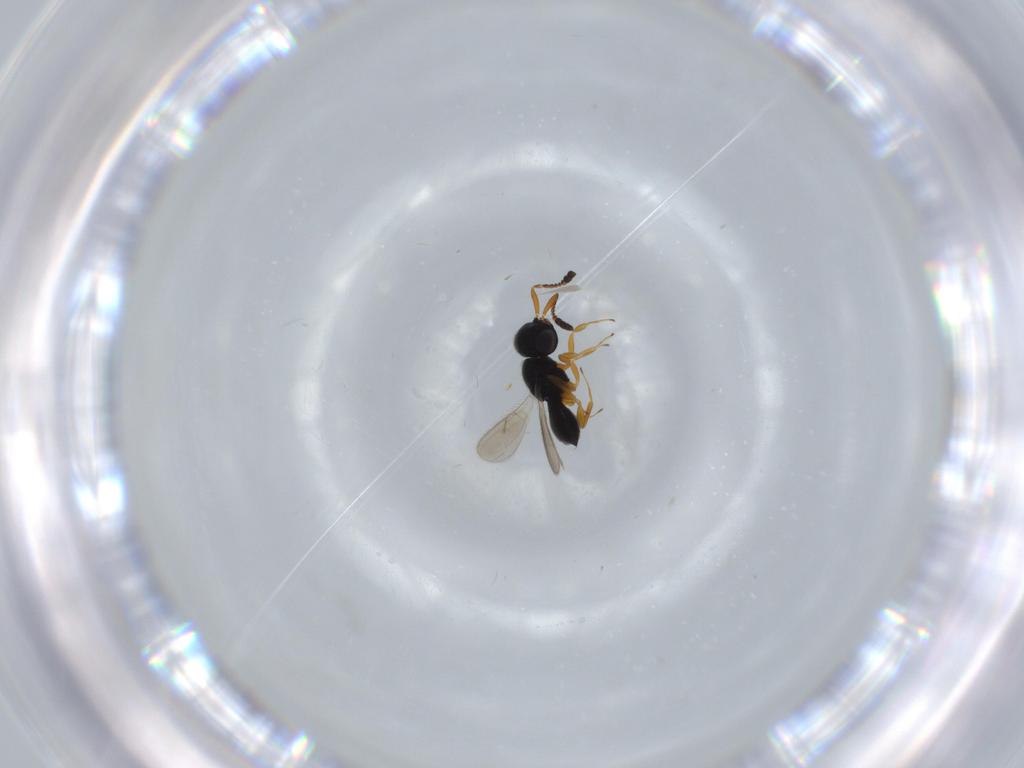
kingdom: Animalia
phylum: Arthropoda
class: Insecta
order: Hymenoptera
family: Scelionidae
